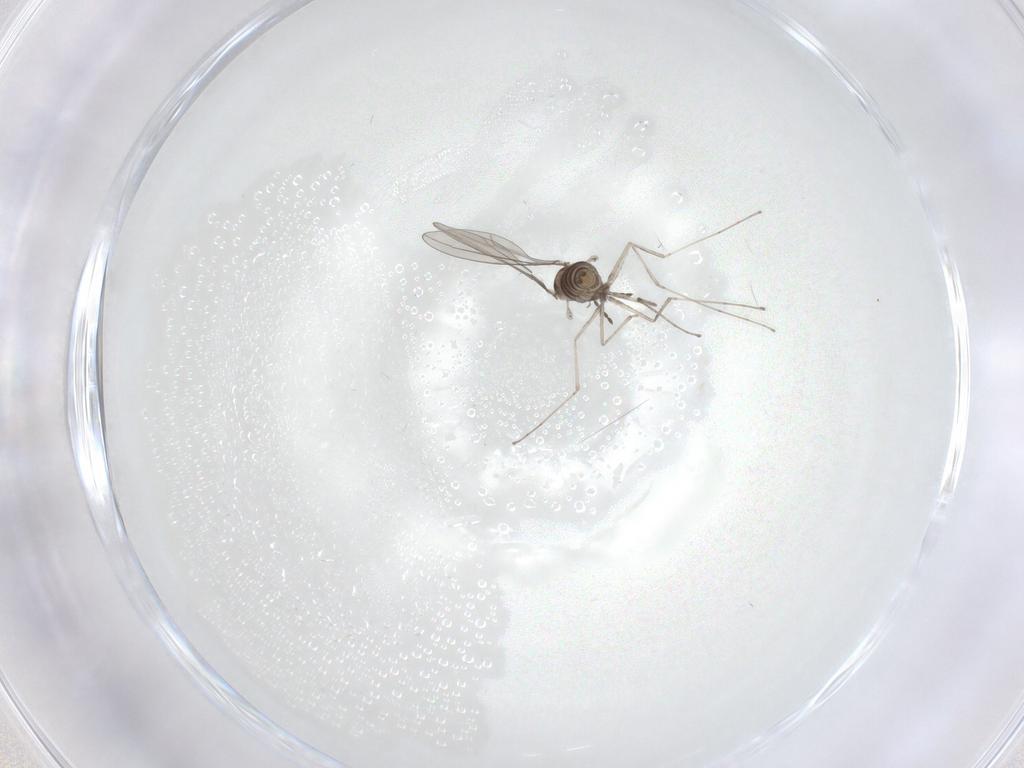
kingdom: Animalia
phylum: Arthropoda
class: Insecta
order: Diptera
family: Cecidomyiidae
